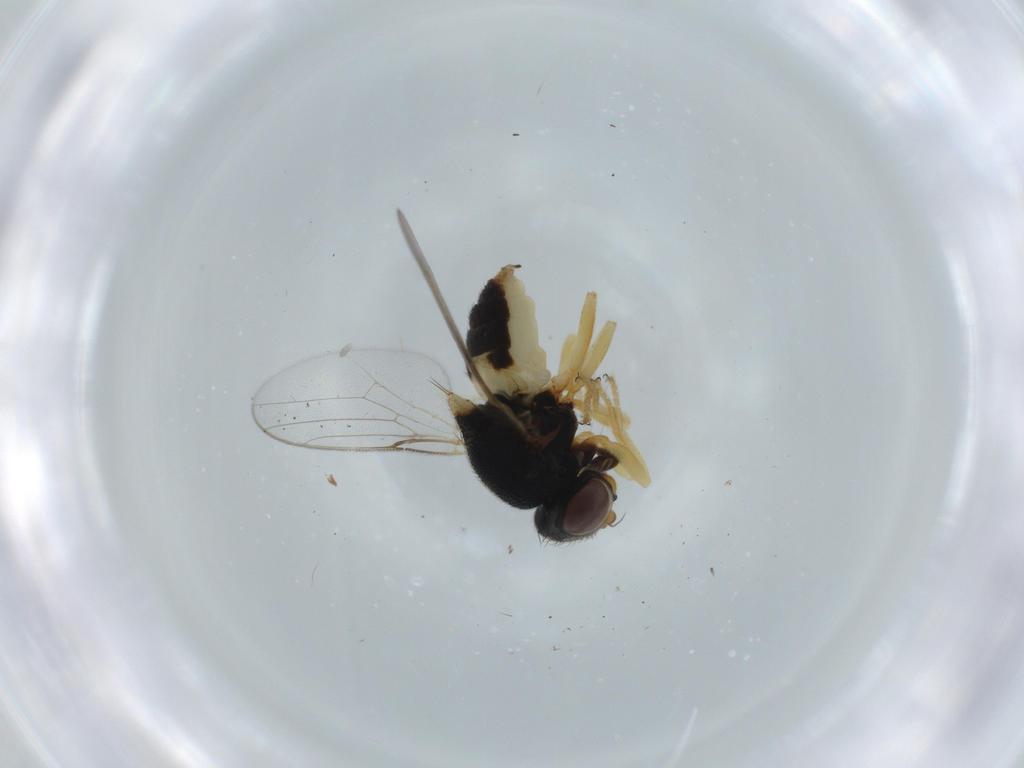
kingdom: Animalia
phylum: Arthropoda
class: Insecta
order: Diptera
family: Chloropidae
